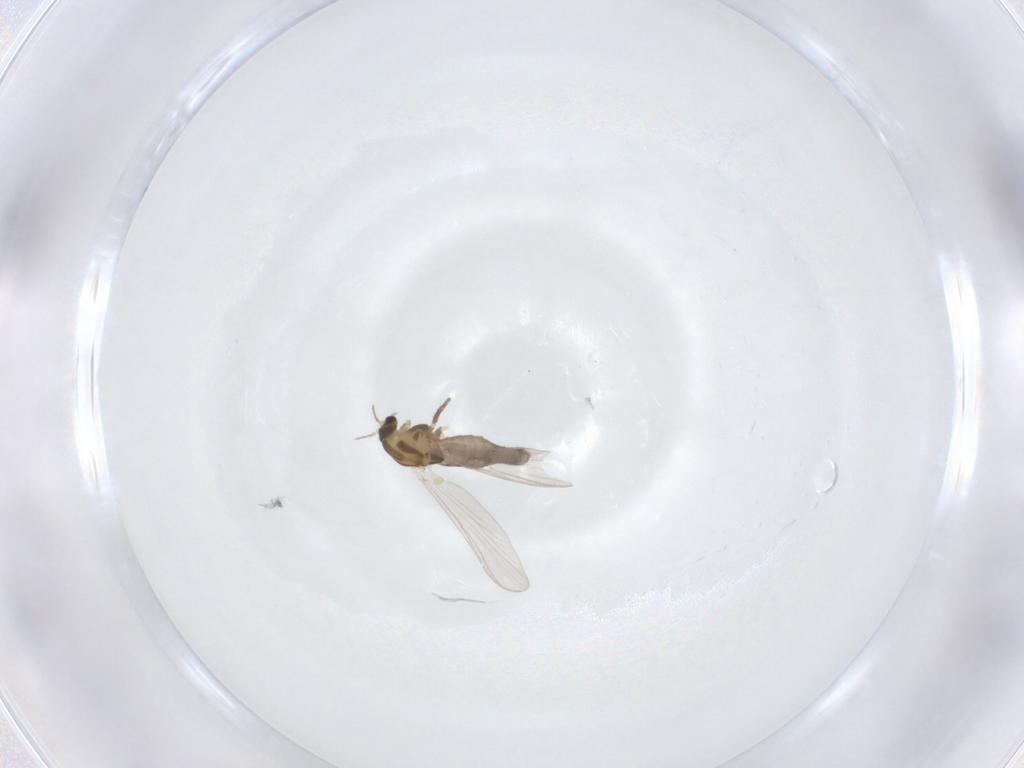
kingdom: Animalia
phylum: Arthropoda
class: Insecta
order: Diptera
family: Chironomidae
